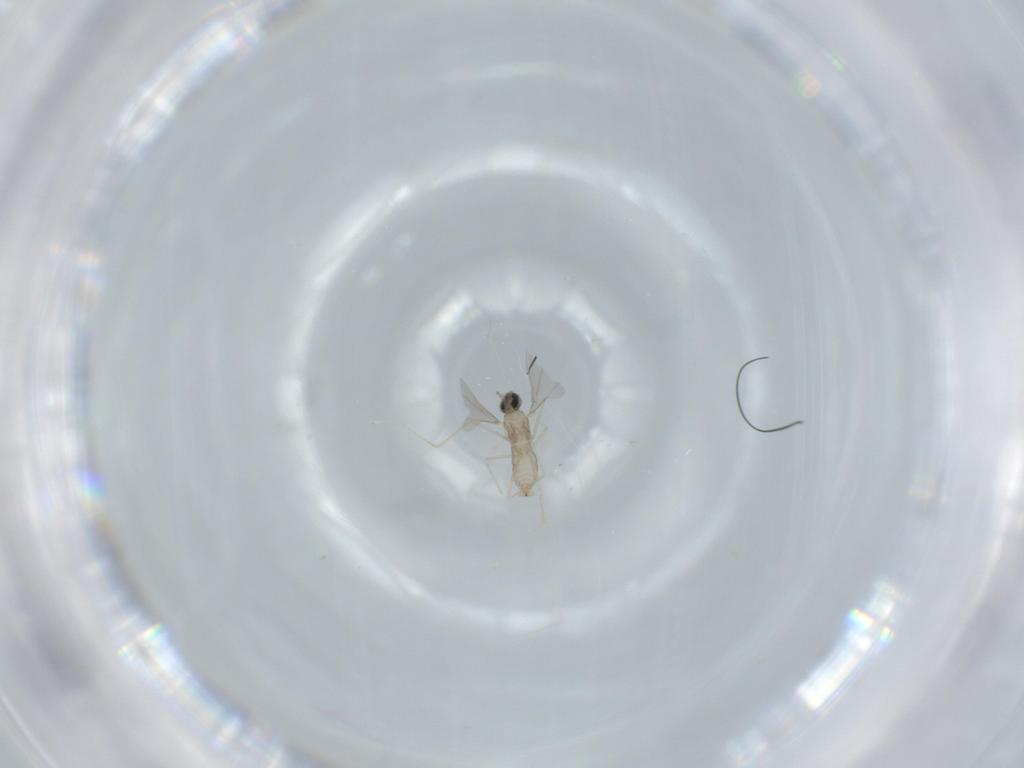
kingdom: Animalia
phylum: Arthropoda
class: Insecta
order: Diptera
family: Cecidomyiidae
